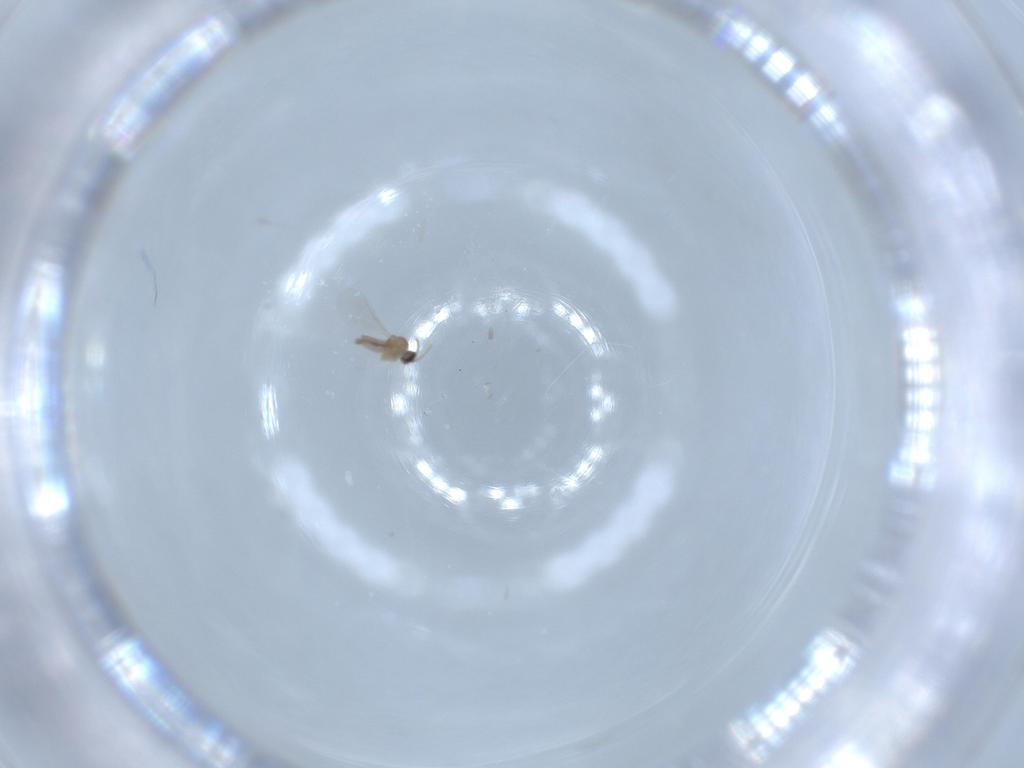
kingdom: Animalia
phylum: Arthropoda
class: Insecta
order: Diptera
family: Cecidomyiidae
